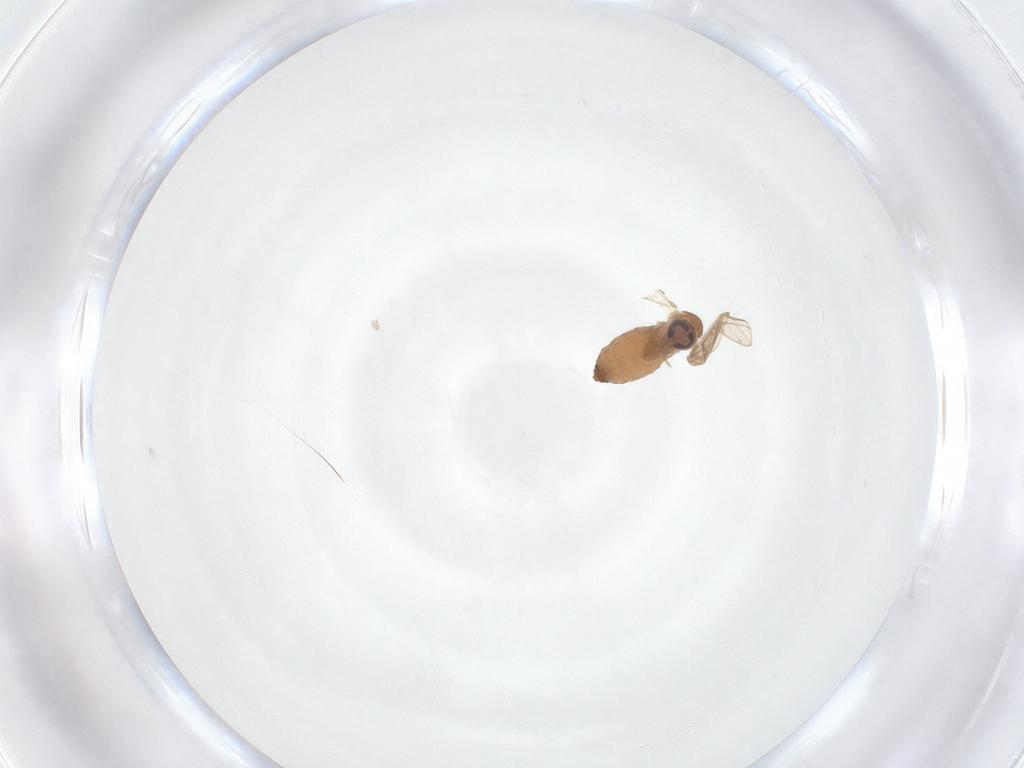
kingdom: Animalia
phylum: Arthropoda
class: Insecta
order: Diptera
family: Psychodidae
